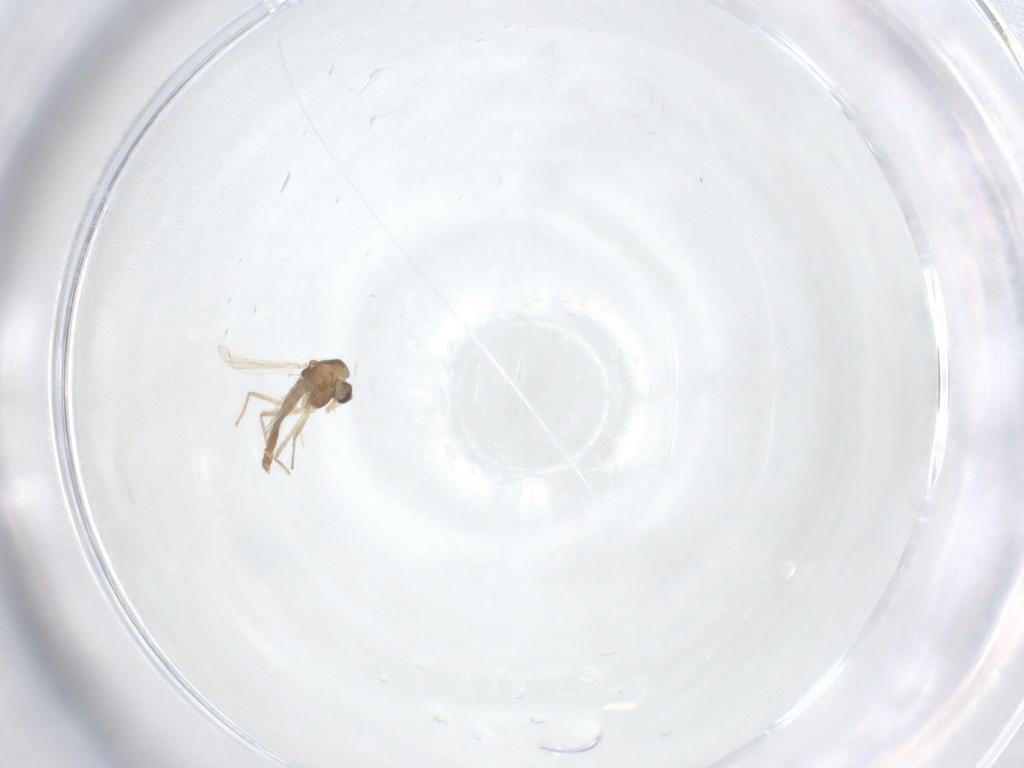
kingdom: Animalia
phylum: Arthropoda
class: Insecta
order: Diptera
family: Chironomidae
